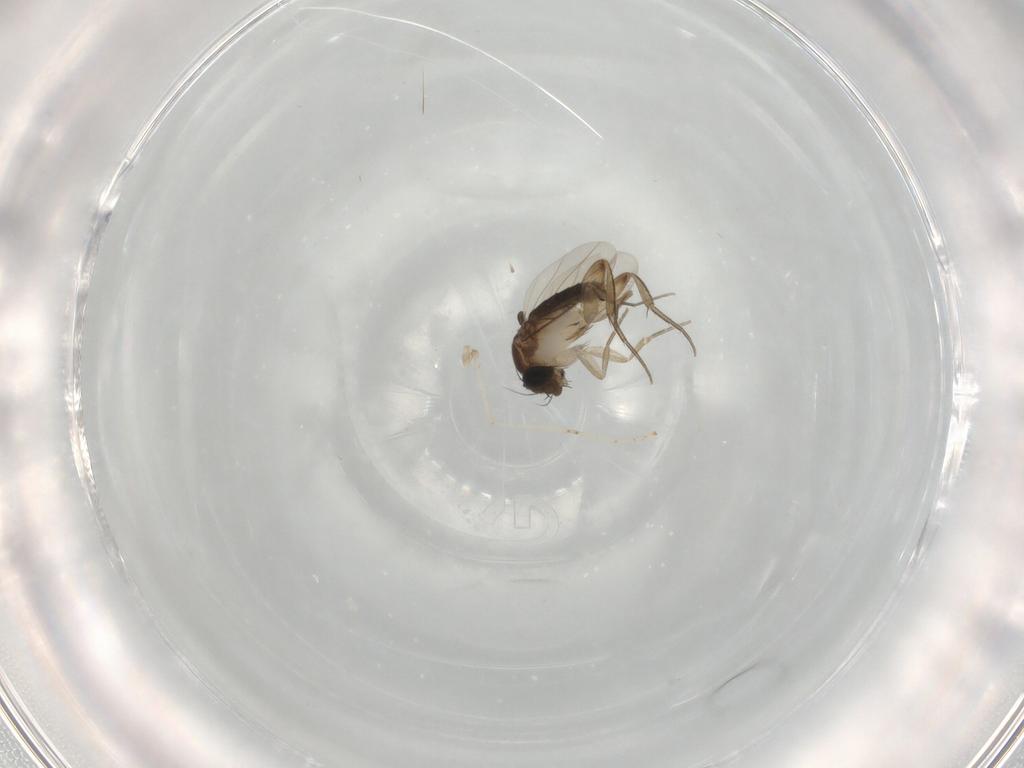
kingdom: Animalia
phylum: Arthropoda
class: Insecta
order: Diptera
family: Phoridae
